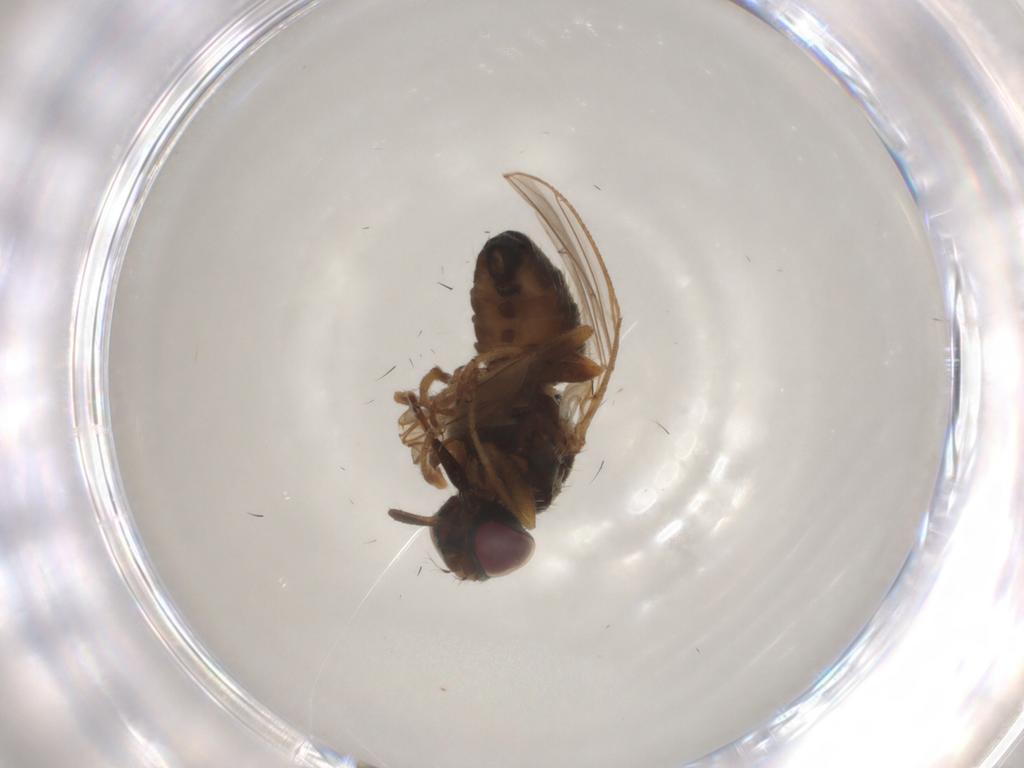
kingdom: Animalia
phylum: Arthropoda
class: Insecta
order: Diptera
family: Calliphoridae
